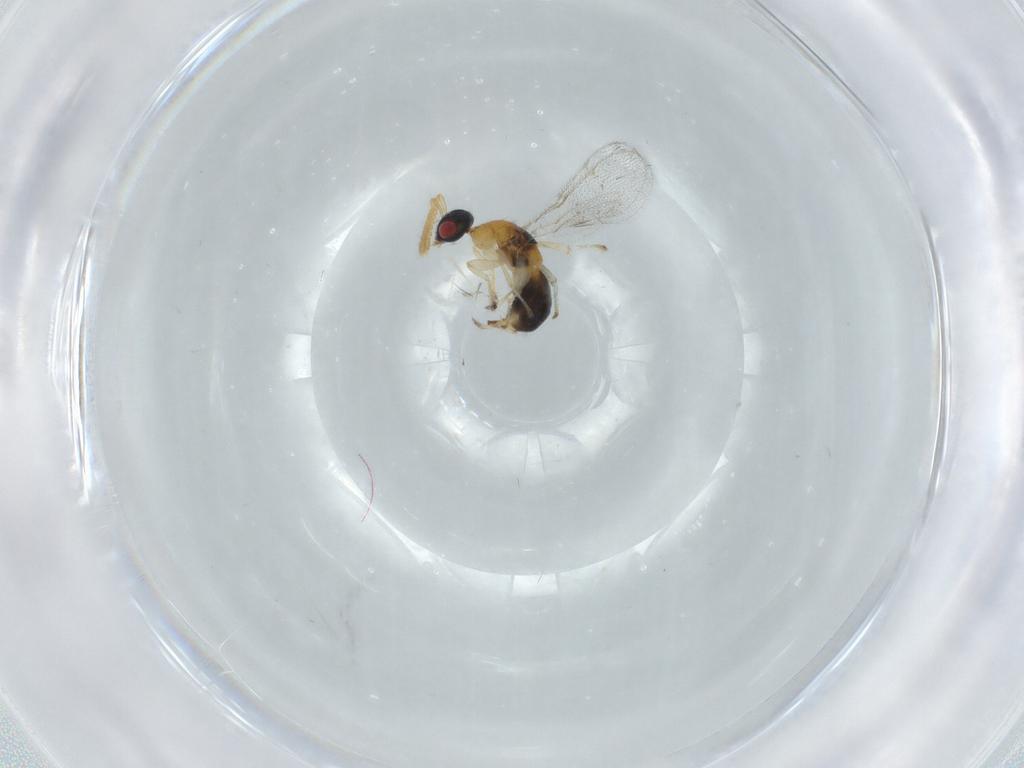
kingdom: Animalia
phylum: Arthropoda
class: Insecta
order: Hymenoptera
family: Torymidae
